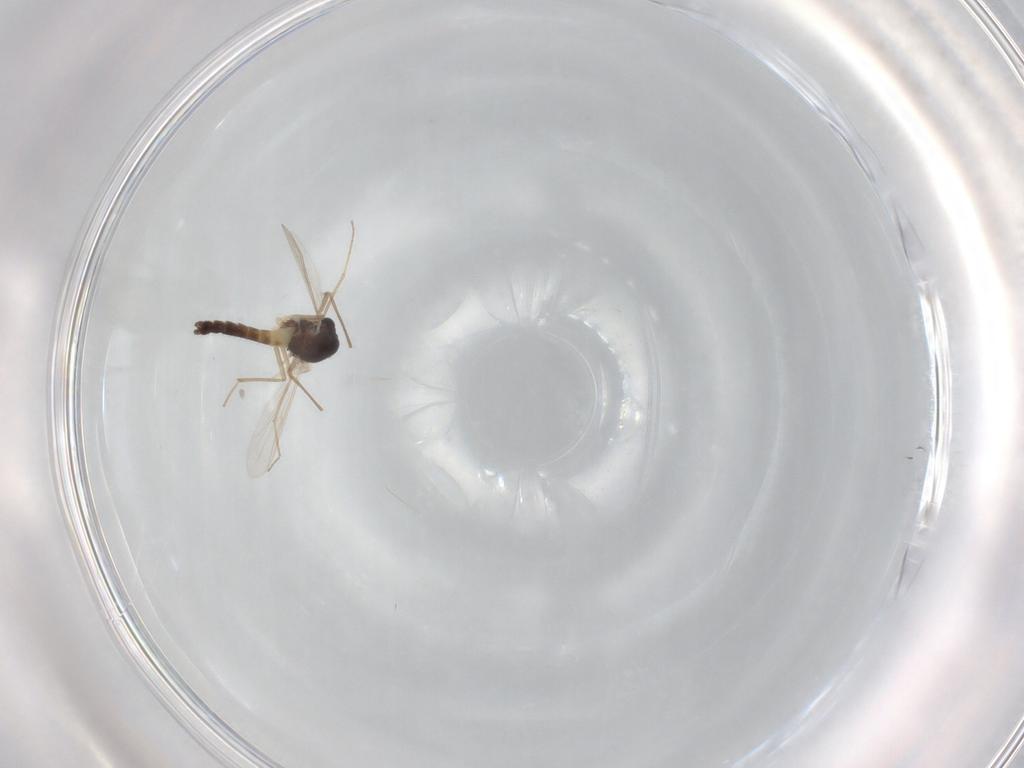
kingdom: Animalia
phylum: Arthropoda
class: Insecta
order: Diptera
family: Chironomidae
